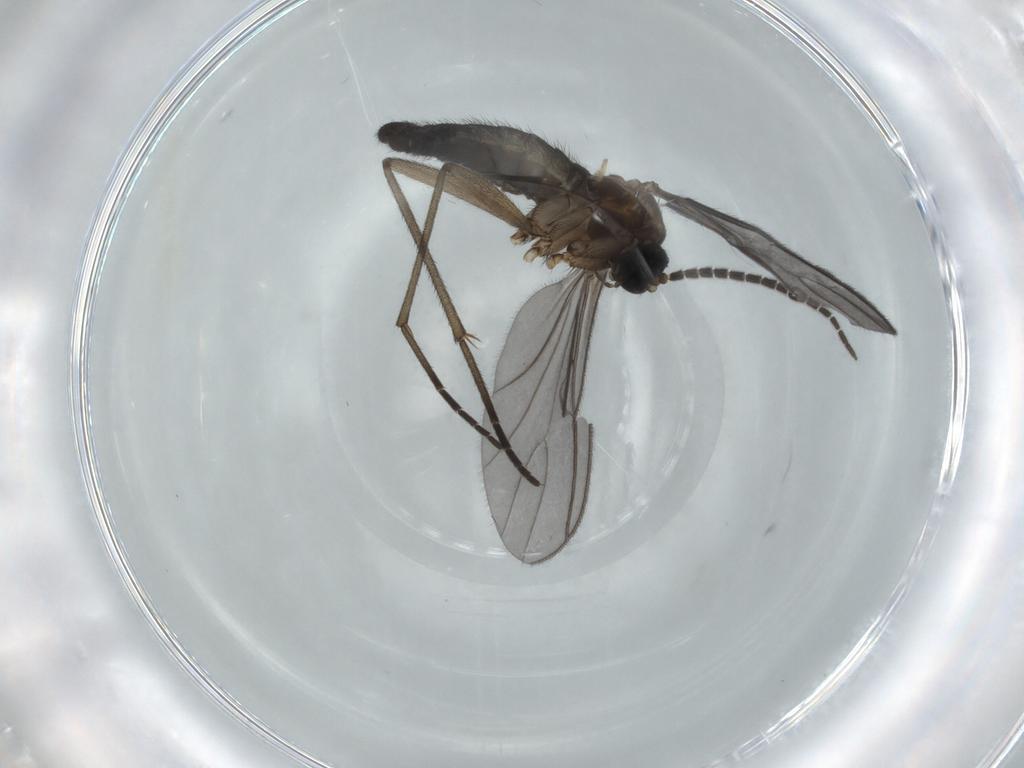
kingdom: Animalia
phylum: Arthropoda
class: Insecta
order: Diptera
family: Sciaridae
